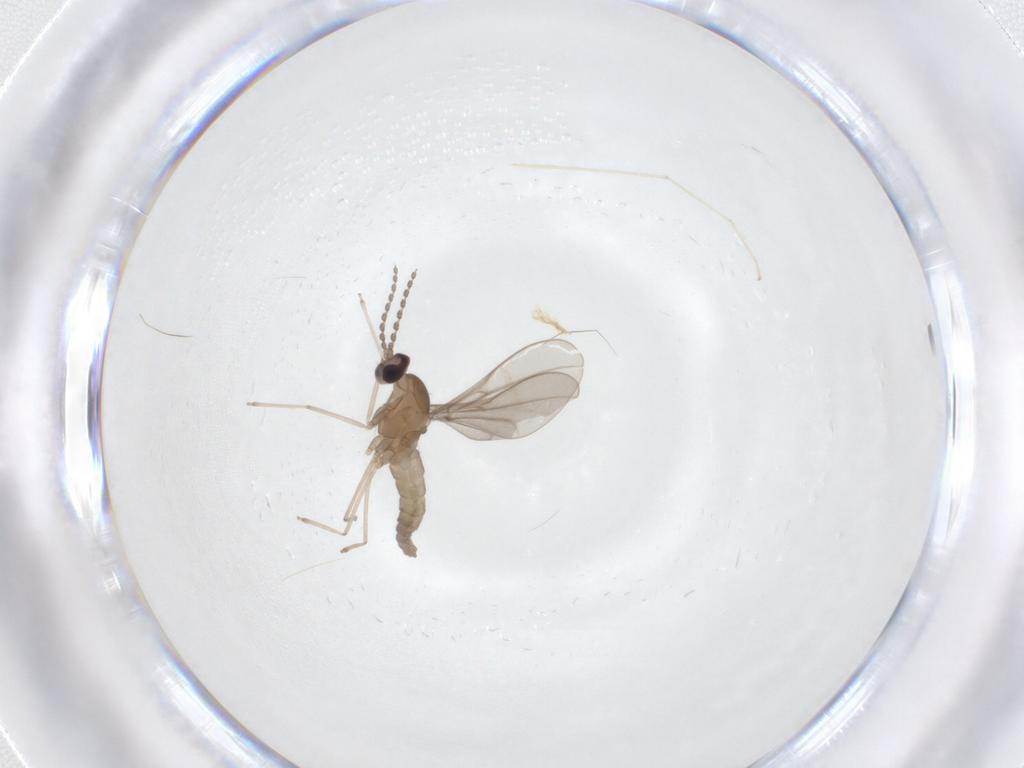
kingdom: Animalia
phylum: Arthropoda
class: Insecta
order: Diptera
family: Cecidomyiidae
